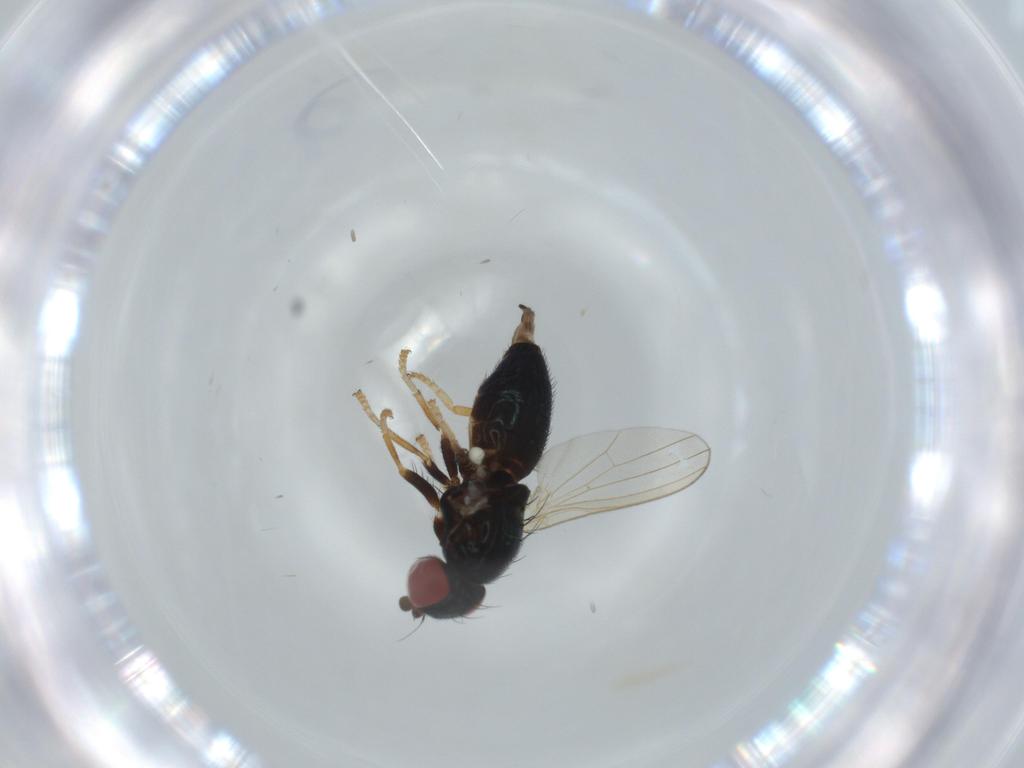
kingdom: Animalia
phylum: Arthropoda
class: Insecta
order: Diptera
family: Chamaemyiidae
